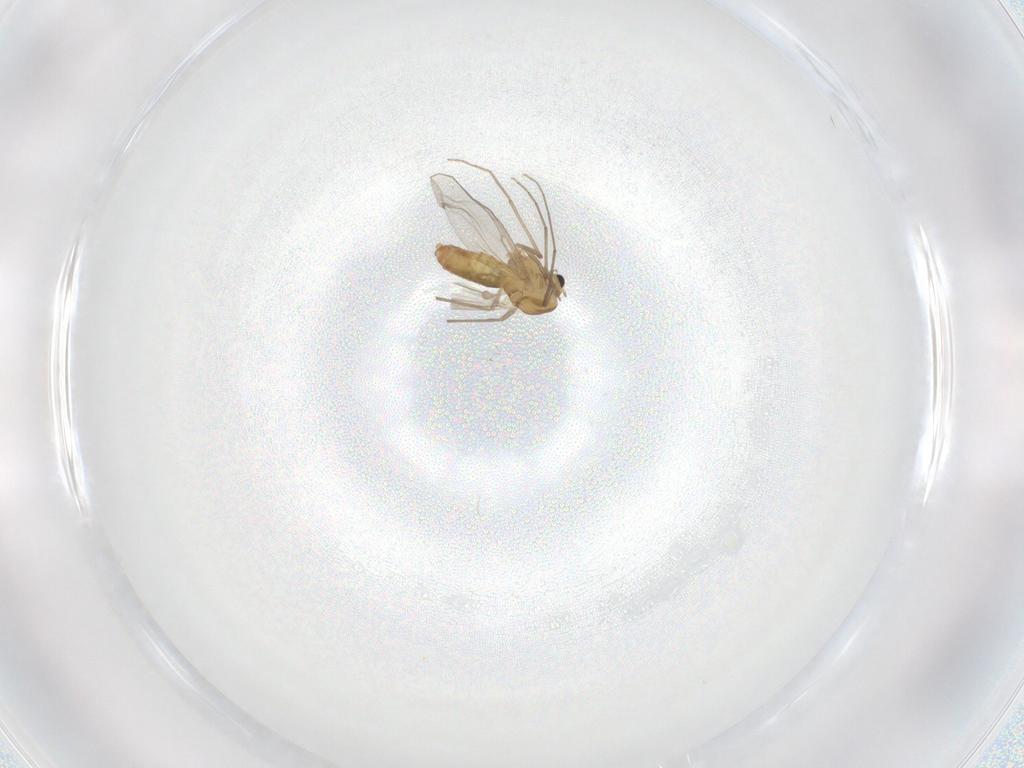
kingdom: Animalia
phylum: Arthropoda
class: Insecta
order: Diptera
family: Chironomidae
